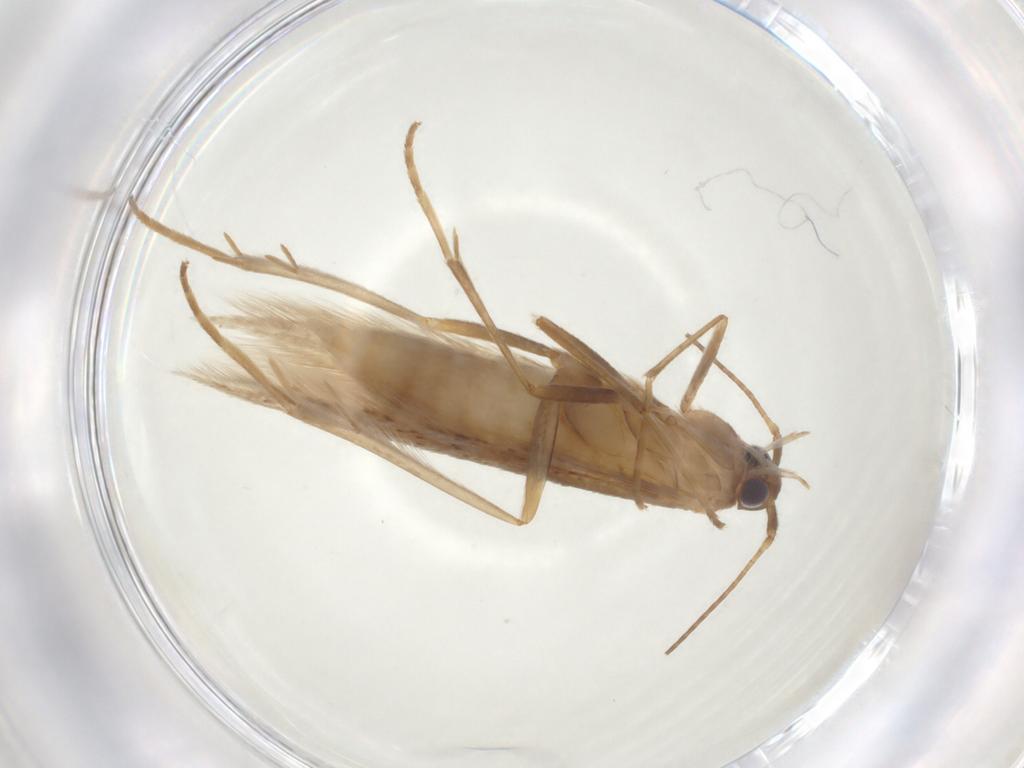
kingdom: Animalia
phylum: Arthropoda
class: Insecta
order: Lepidoptera
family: Coleophoridae
